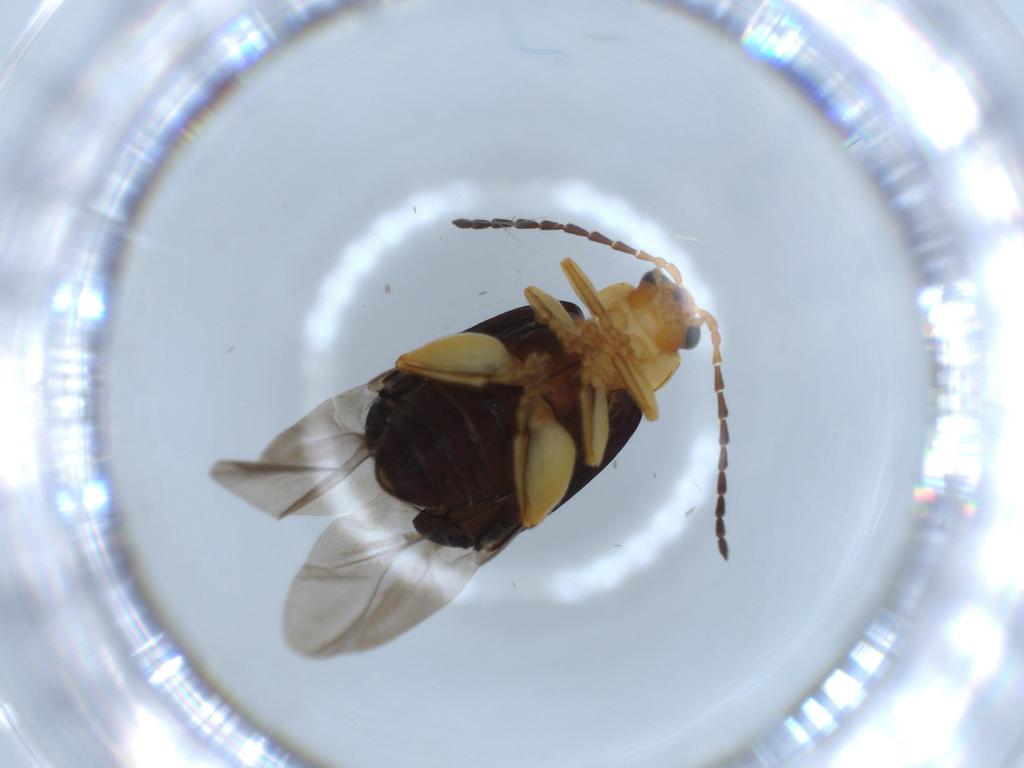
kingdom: Animalia
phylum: Arthropoda
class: Insecta
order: Coleoptera
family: Chrysomelidae
